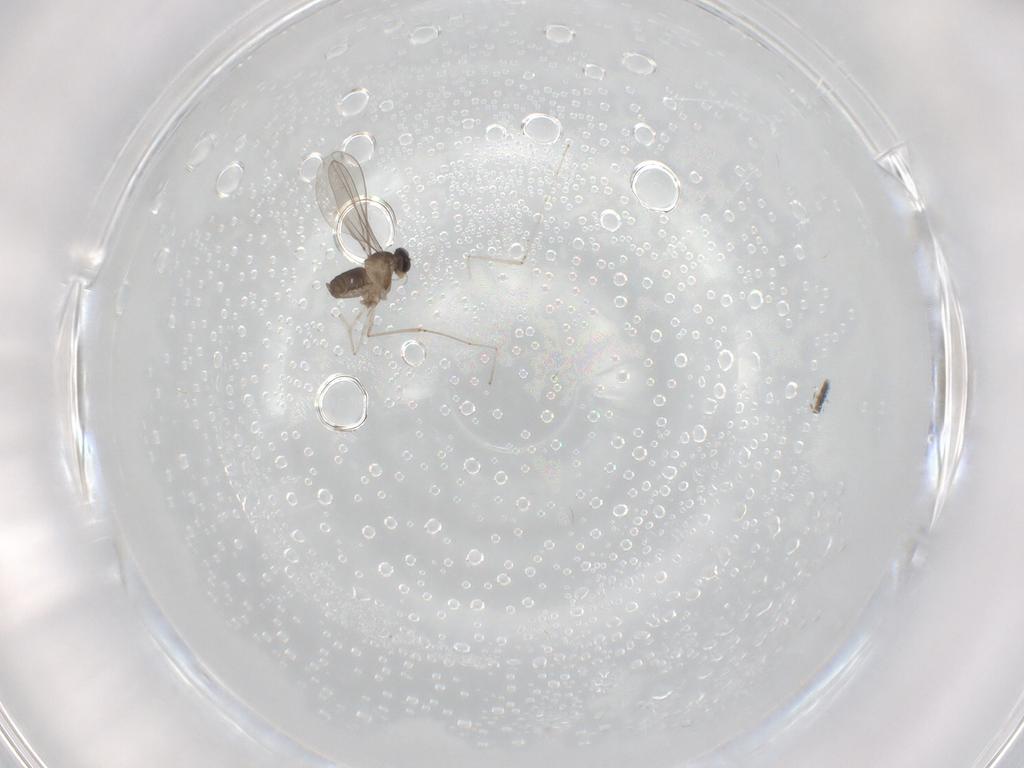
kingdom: Animalia
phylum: Arthropoda
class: Insecta
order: Diptera
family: Cecidomyiidae
